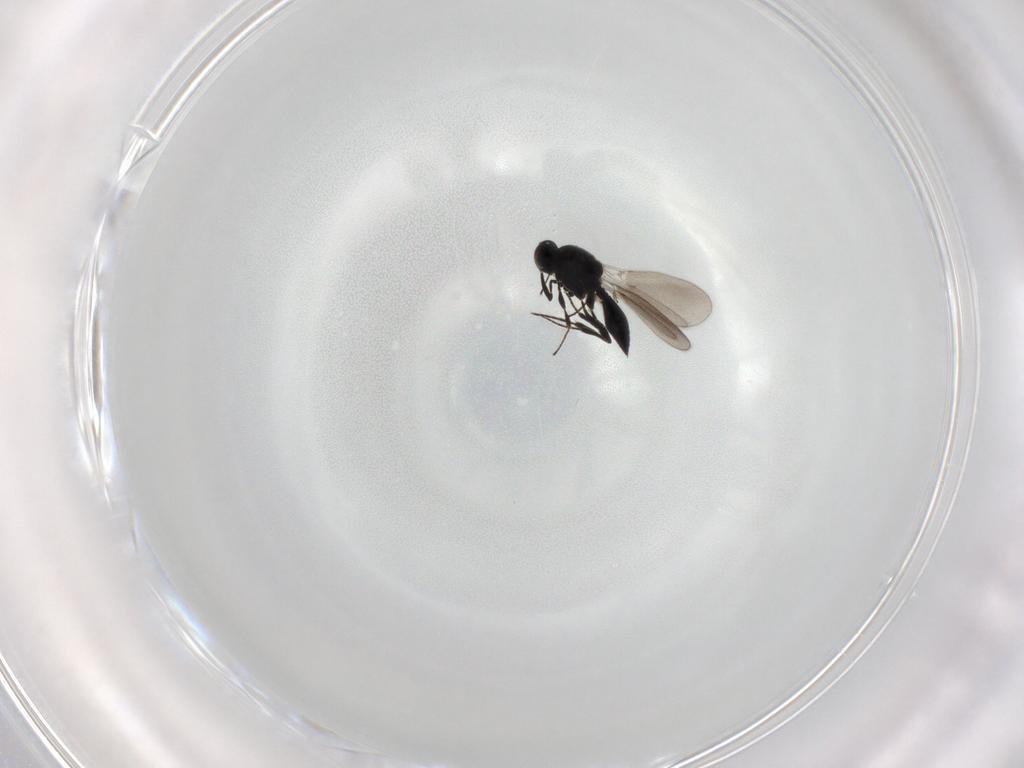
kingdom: Animalia
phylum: Arthropoda
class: Insecta
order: Hymenoptera
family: Platygastridae
